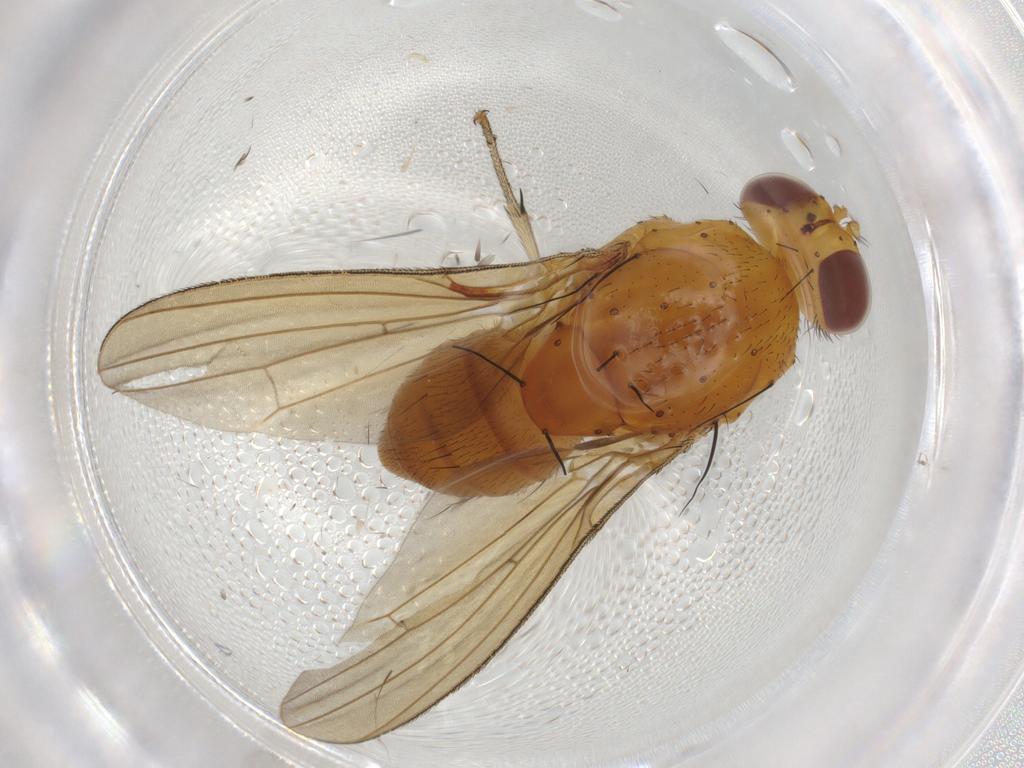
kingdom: Animalia
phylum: Arthropoda
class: Insecta
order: Diptera
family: Cecidomyiidae
